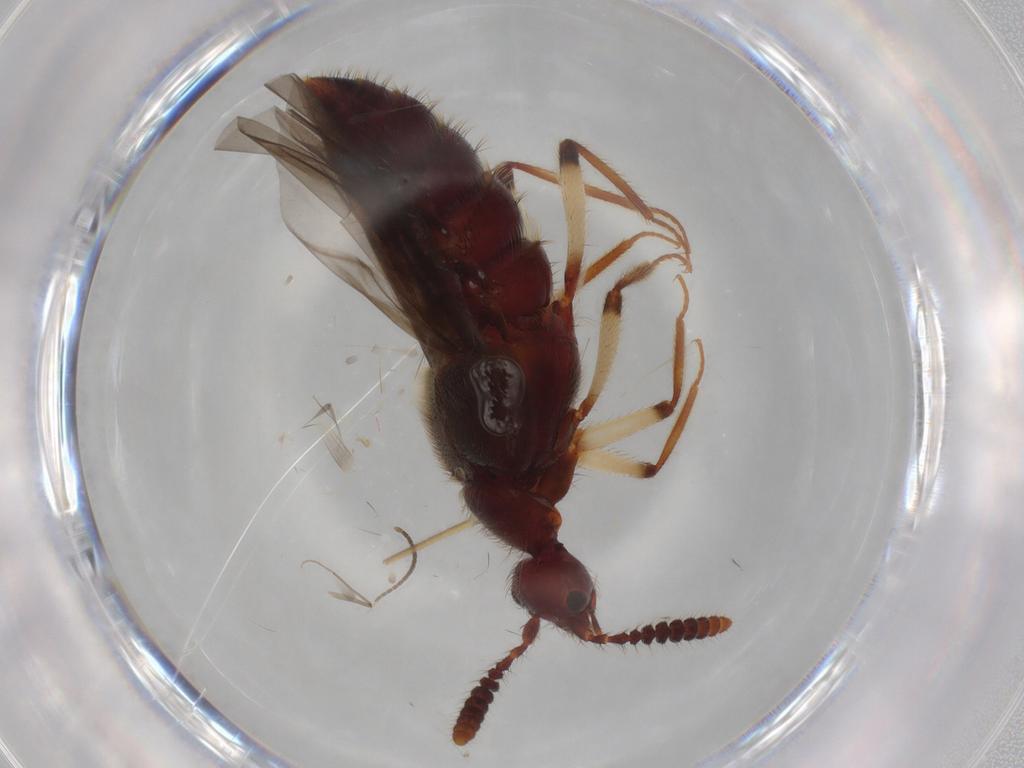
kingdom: Animalia
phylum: Arthropoda
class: Insecta
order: Coleoptera
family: Staphylinidae
